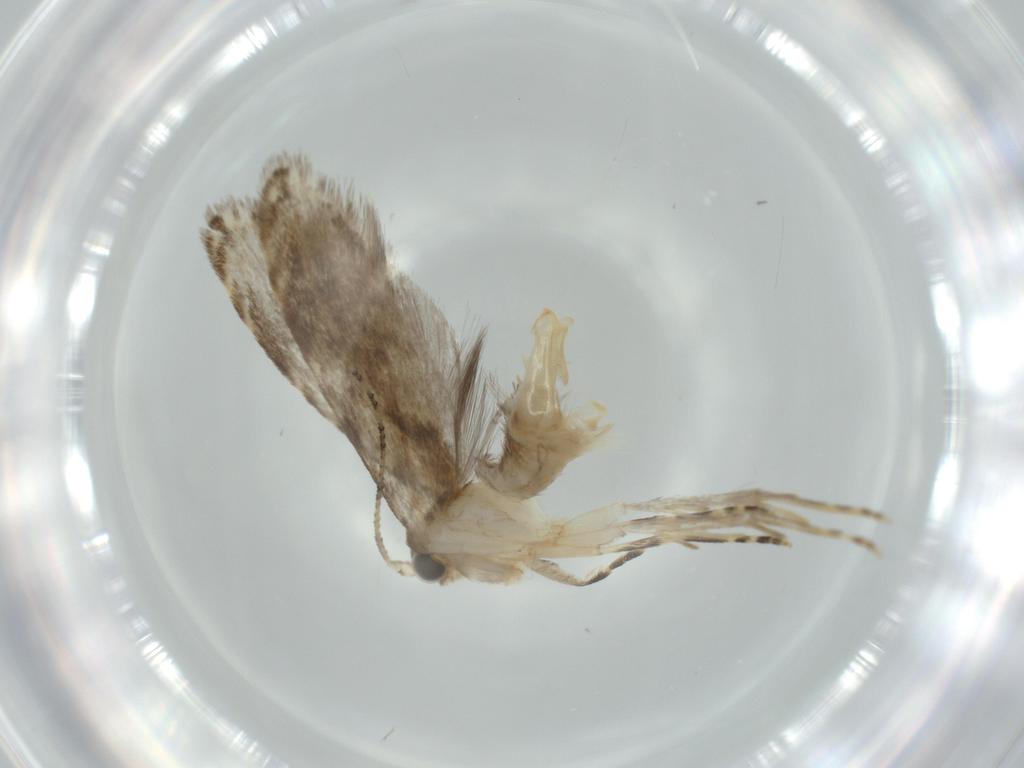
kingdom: Animalia
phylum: Arthropoda
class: Insecta
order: Lepidoptera
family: Tineidae
